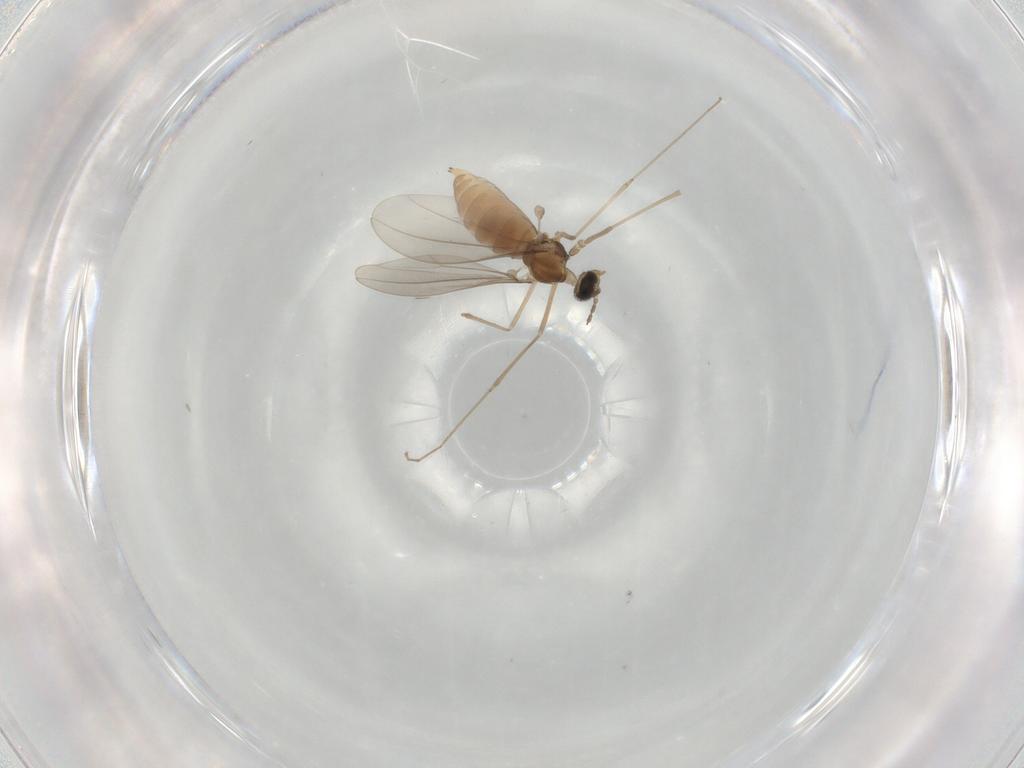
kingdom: Animalia
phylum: Arthropoda
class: Insecta
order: Diptera
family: Cecidomyiidae
